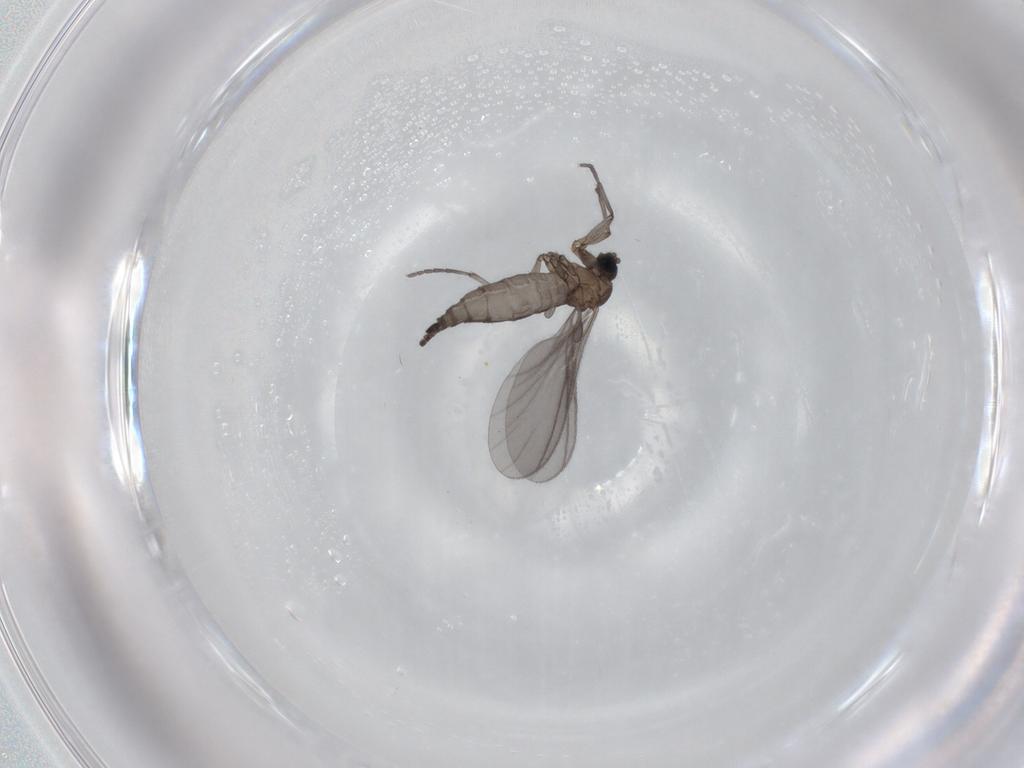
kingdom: Animalia
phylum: Arthropoda
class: Insecta
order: Diptera
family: Sciaridae
